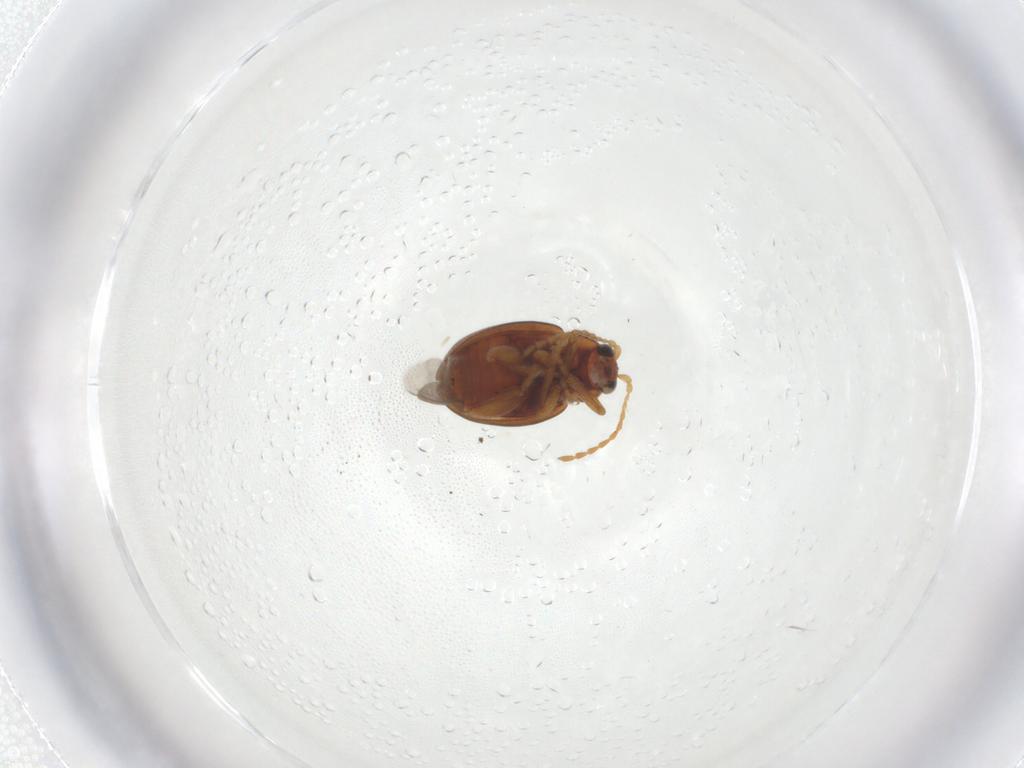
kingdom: Animalia
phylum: Arthropoda
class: Insecta
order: Coleoptera
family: Chrysomelidae
